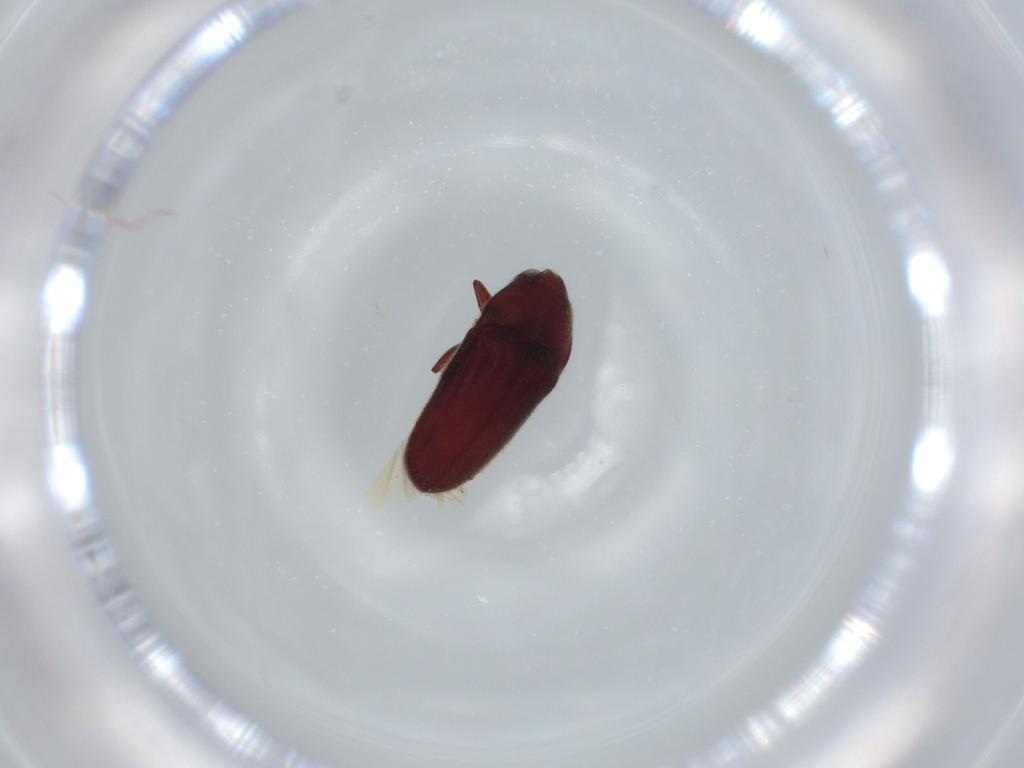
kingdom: Animalia
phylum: Arthropoda
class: Insecta
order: Coleoptera
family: Throscidae
